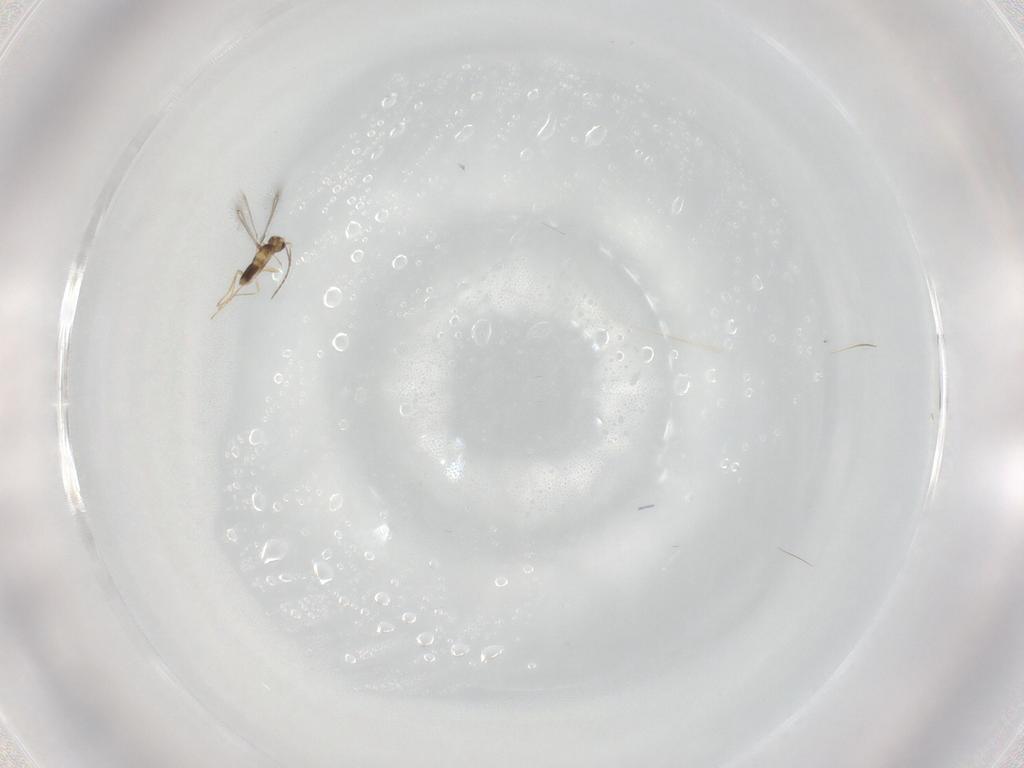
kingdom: Animalia
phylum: Arthropoda
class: Insecta
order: Hymenoptera
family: Mymaridae
